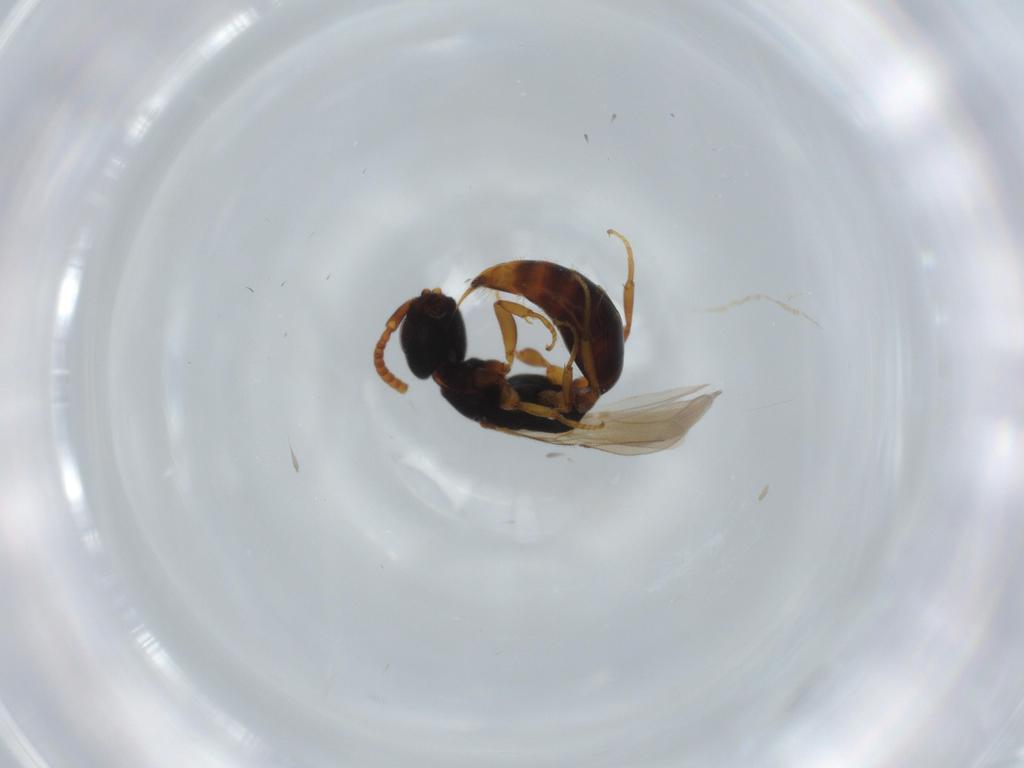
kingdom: Animalia
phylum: Arthropoda
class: Insecta
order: Hymenoptera
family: Bethylidae
